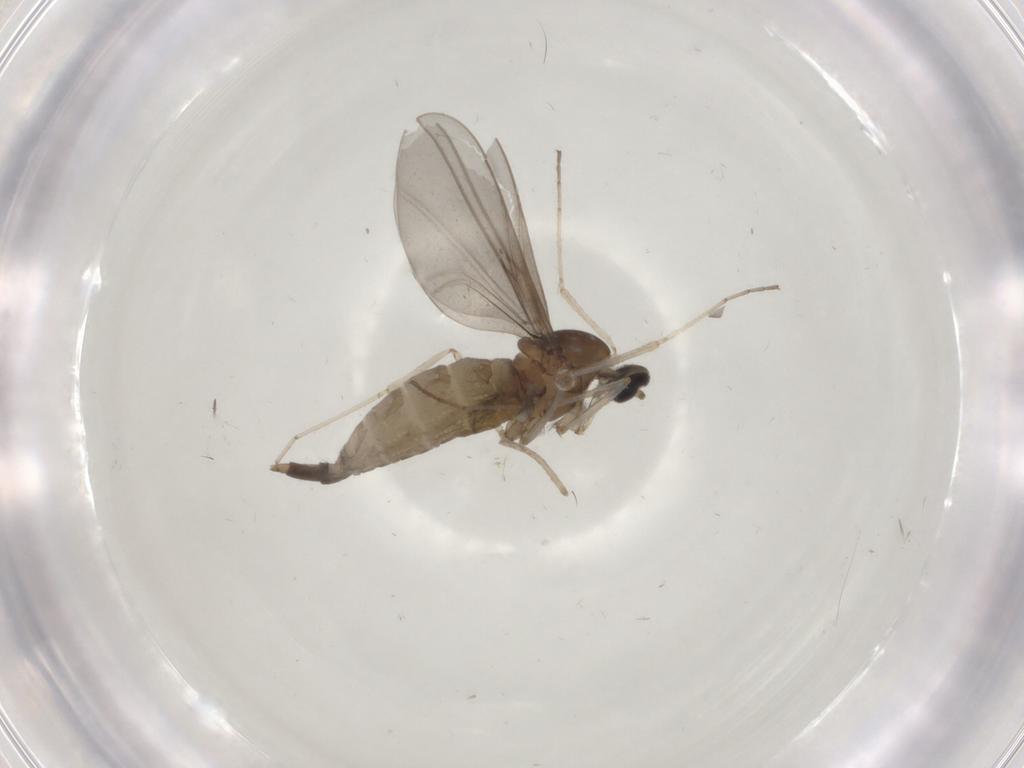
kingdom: Animalia
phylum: Arthropoda
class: Insecta
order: Diptera
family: Cecidomyiidae
